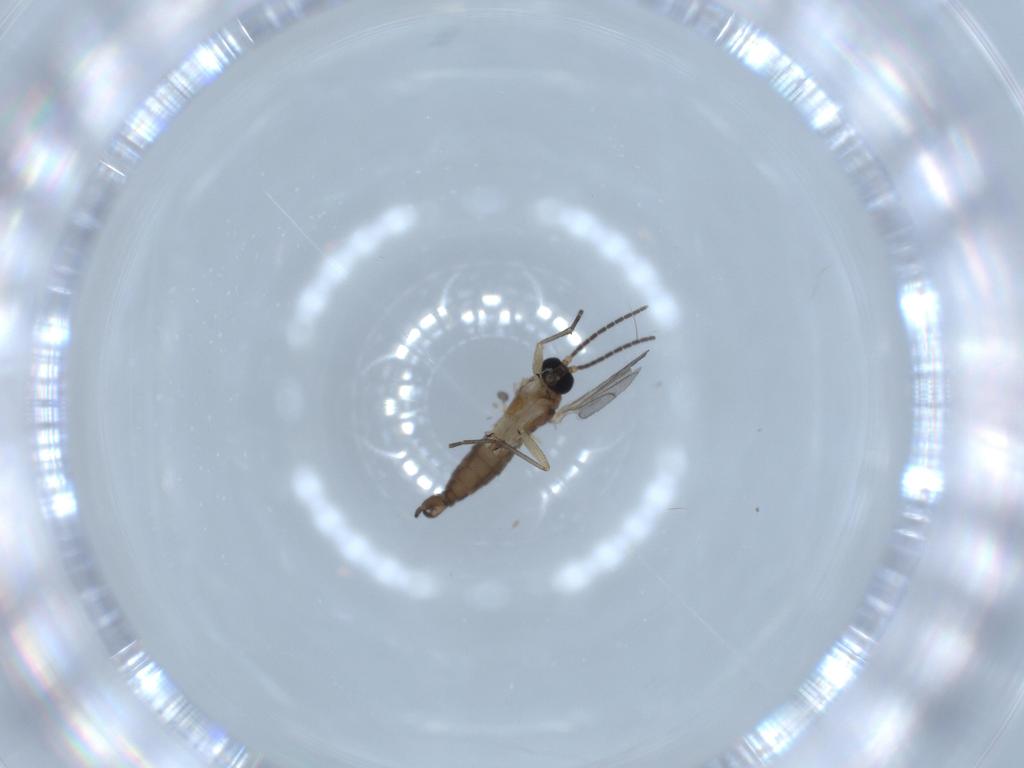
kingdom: Animalia
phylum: Arthropoda
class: Insecta
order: Diptera
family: Sciaridae
